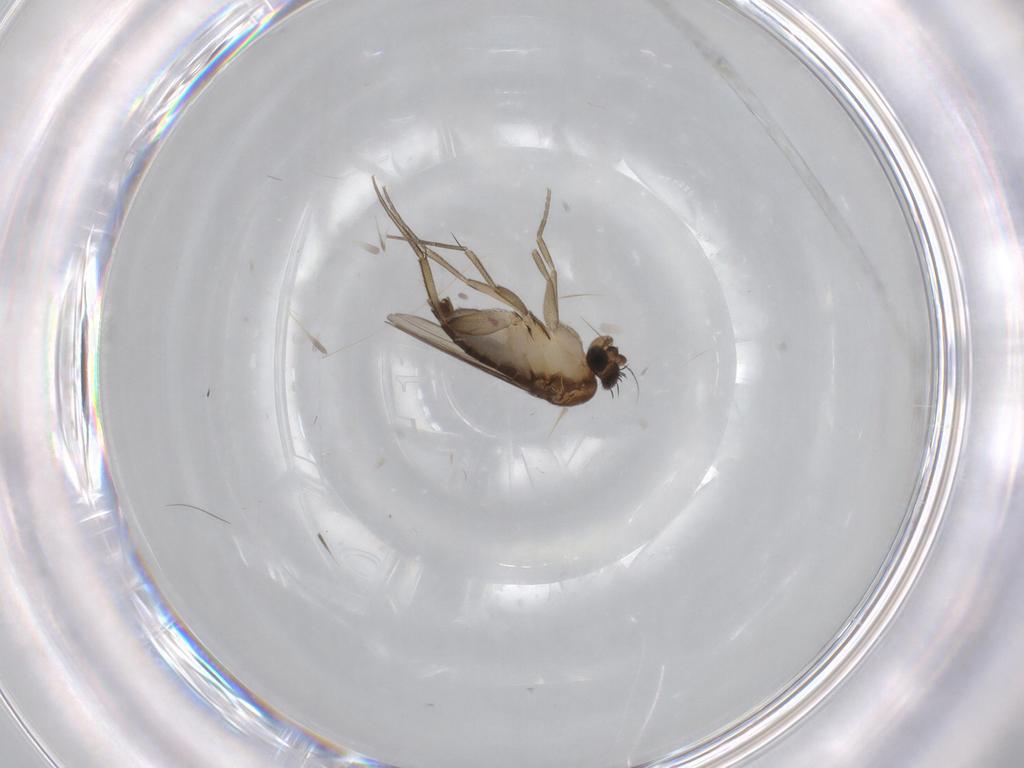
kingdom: Animalia
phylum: Arthropoda
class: Insecta
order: Diptera
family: Phoridae
